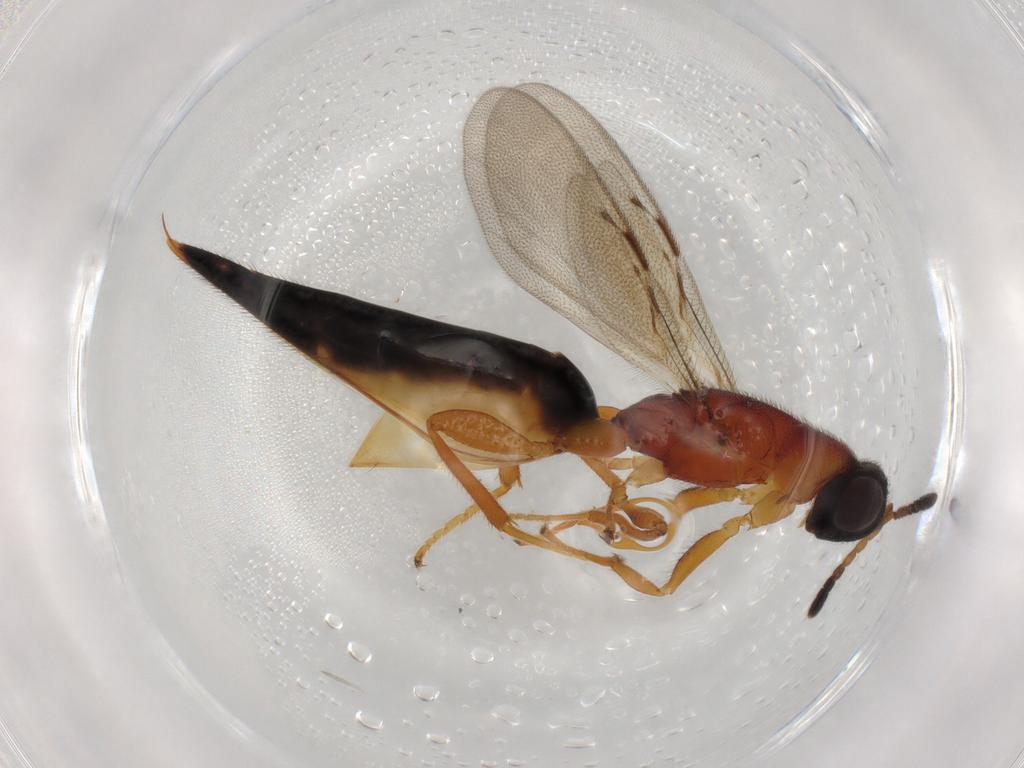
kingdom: Animalia
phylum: Arthropoda
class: Insecta
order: Hymenoptera
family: Eurytomidae
